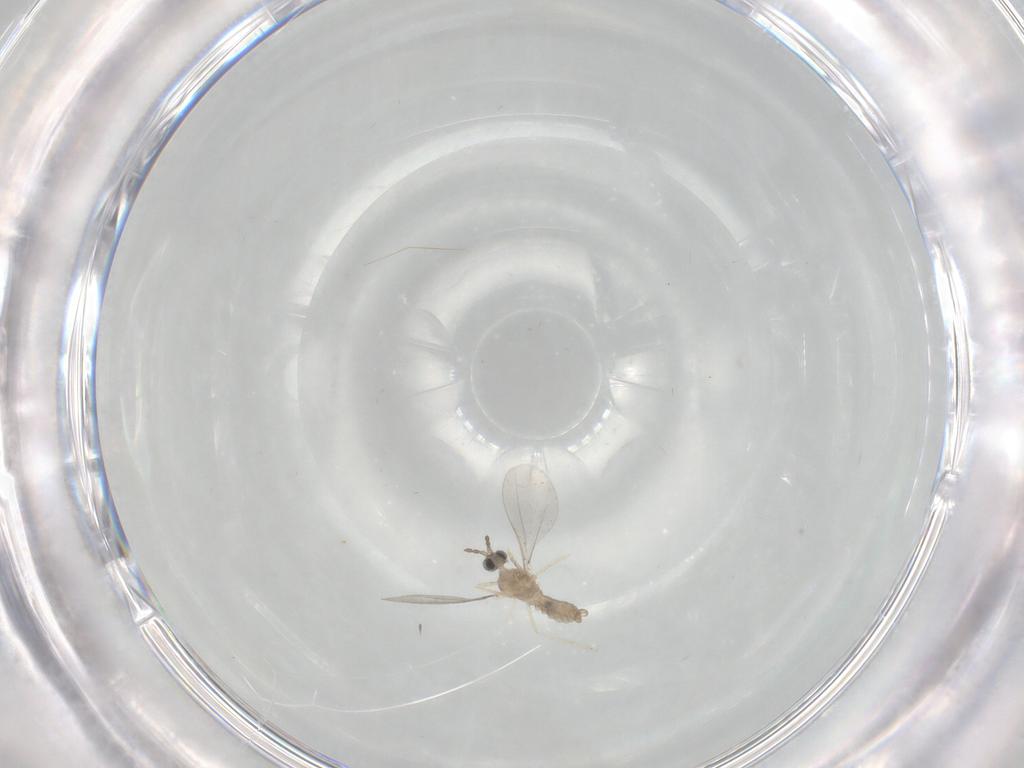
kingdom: Animalia
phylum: Arthropoda
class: Insecta
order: Diptera
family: Cecidomyiidae
